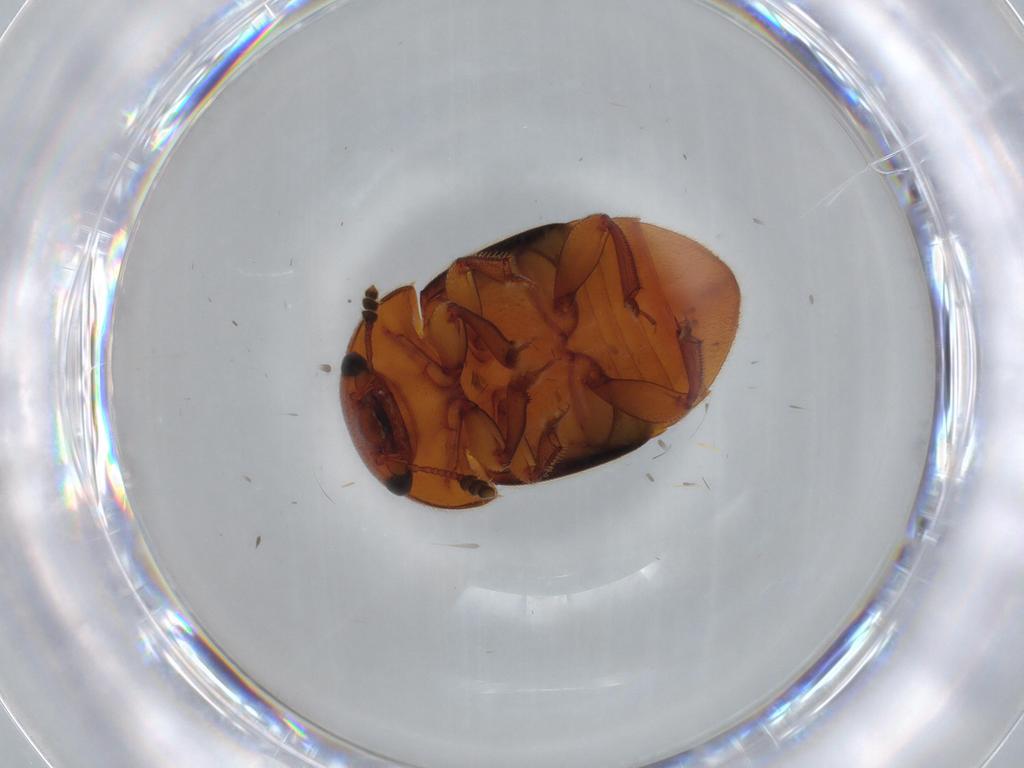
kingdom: Animalia
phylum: Arthropoda
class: Insecta
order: Coleoptera
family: Nitidulidae
